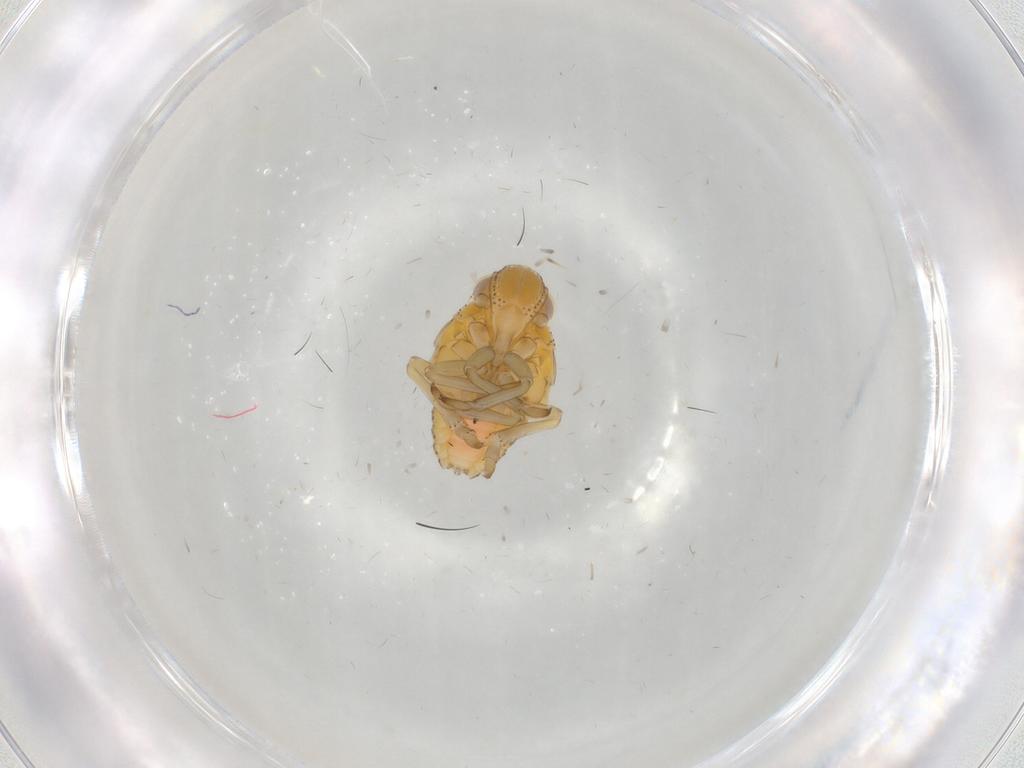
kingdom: Animalia
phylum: Arthropoda
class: Insecta
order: Hemiptera
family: Tropiduchidae
